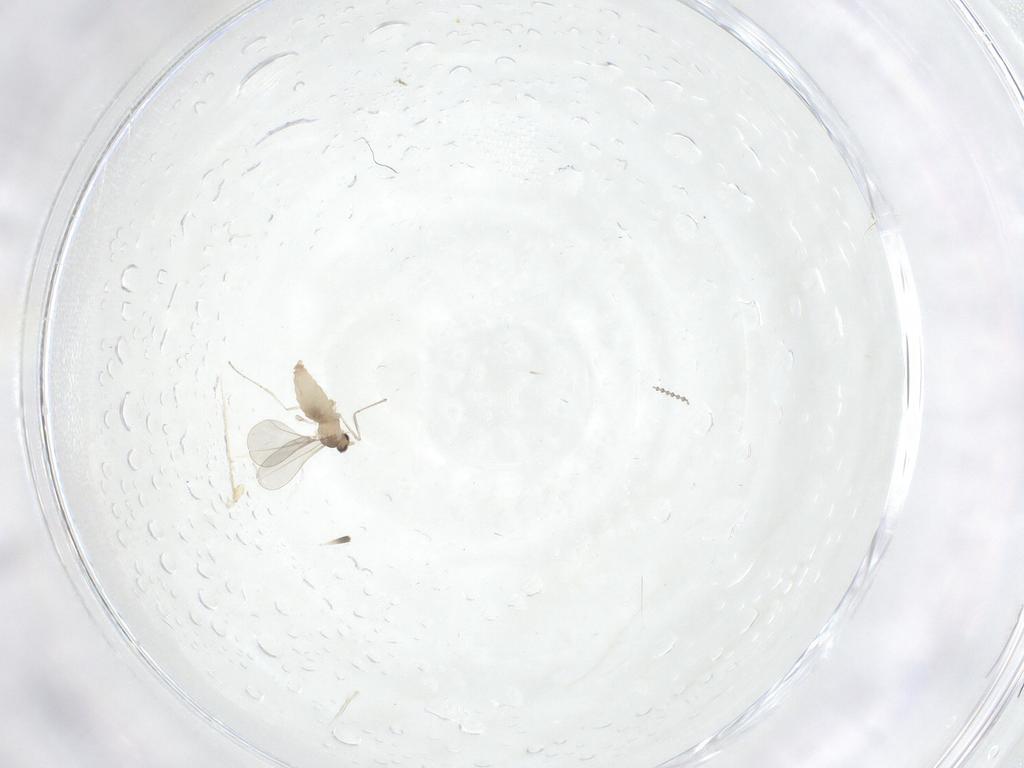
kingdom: Animalia
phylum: Arthropoda
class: Insecta
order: Diptera
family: Cecidomyiidae
